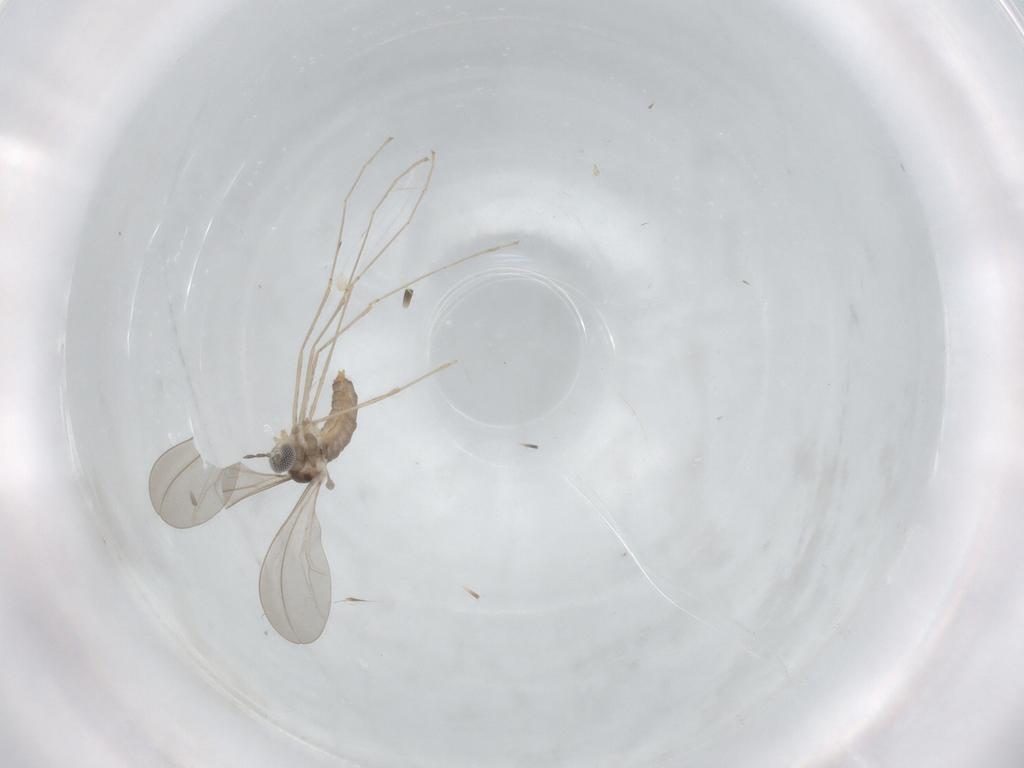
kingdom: Animalia
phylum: Arthropoda
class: Insecta
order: Diptera
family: Cecidomyiidae
